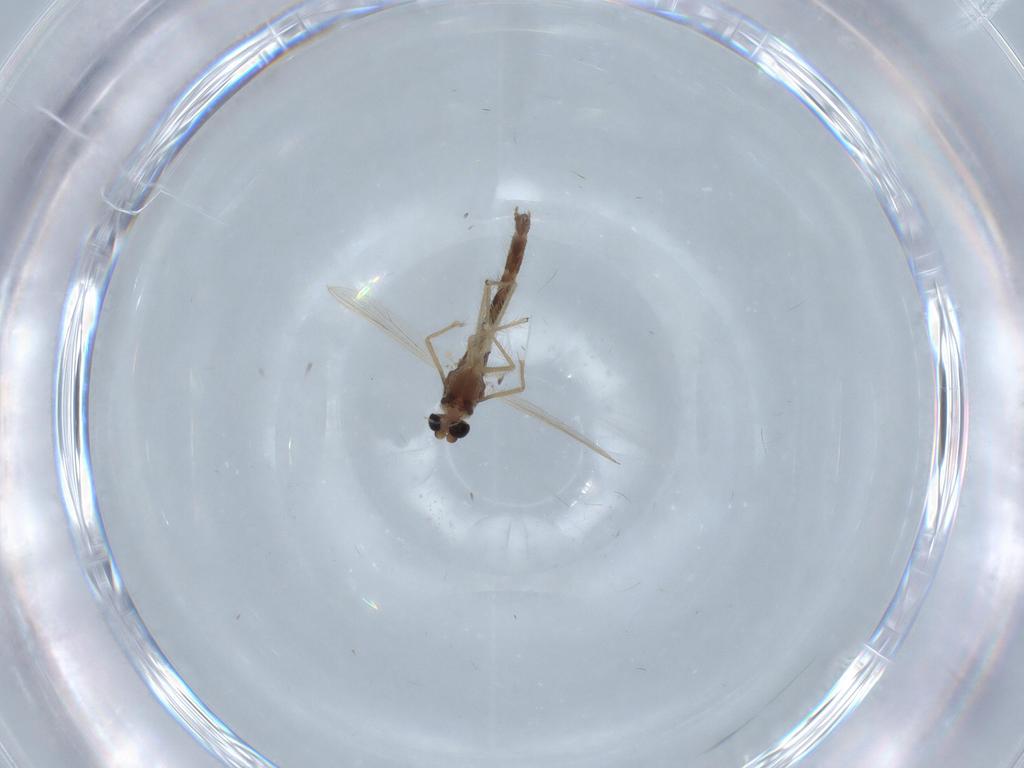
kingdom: Animalia
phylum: Arthropoda
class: Insecta
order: Diptera
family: Chironomidae
